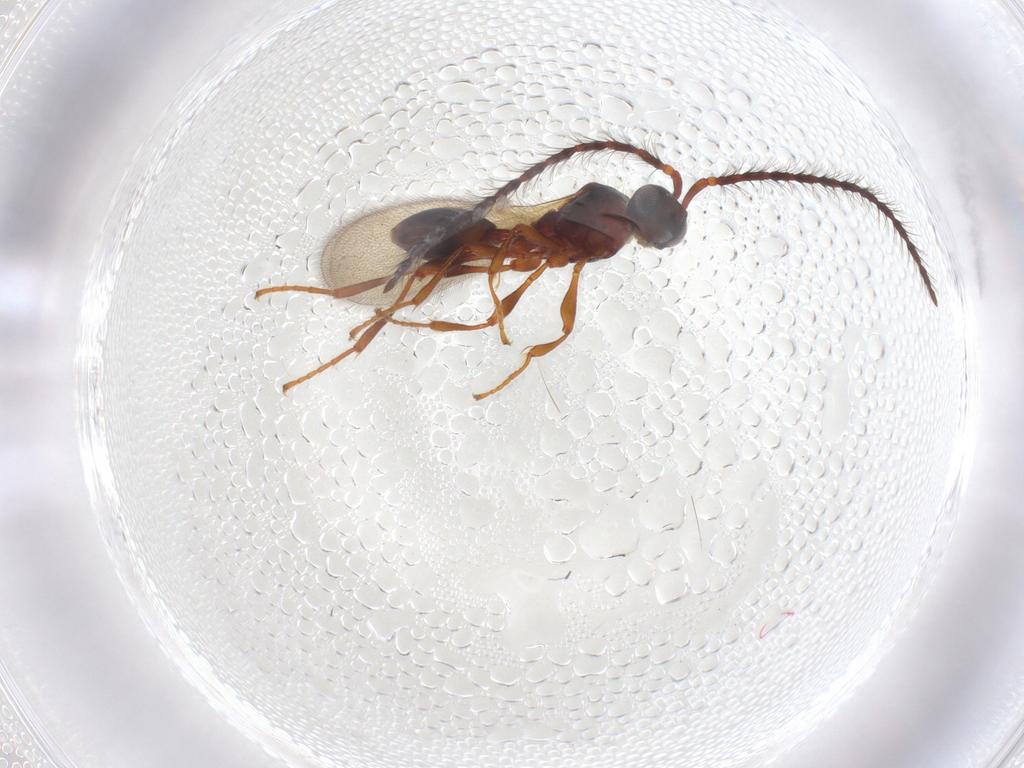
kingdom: Animalia
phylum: Arthropoda
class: Insecta
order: Hymenoptera
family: Diapriidae
